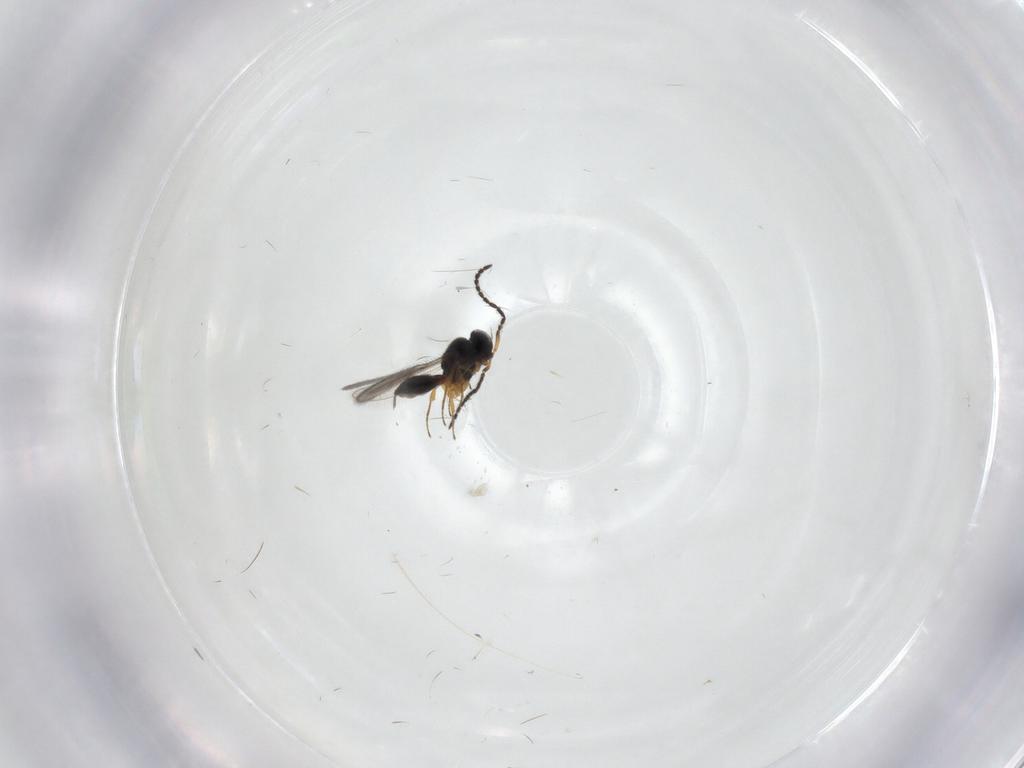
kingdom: Animalia
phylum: Arthropoda
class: Insecta
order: Hymenoptera
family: Scelionidae
